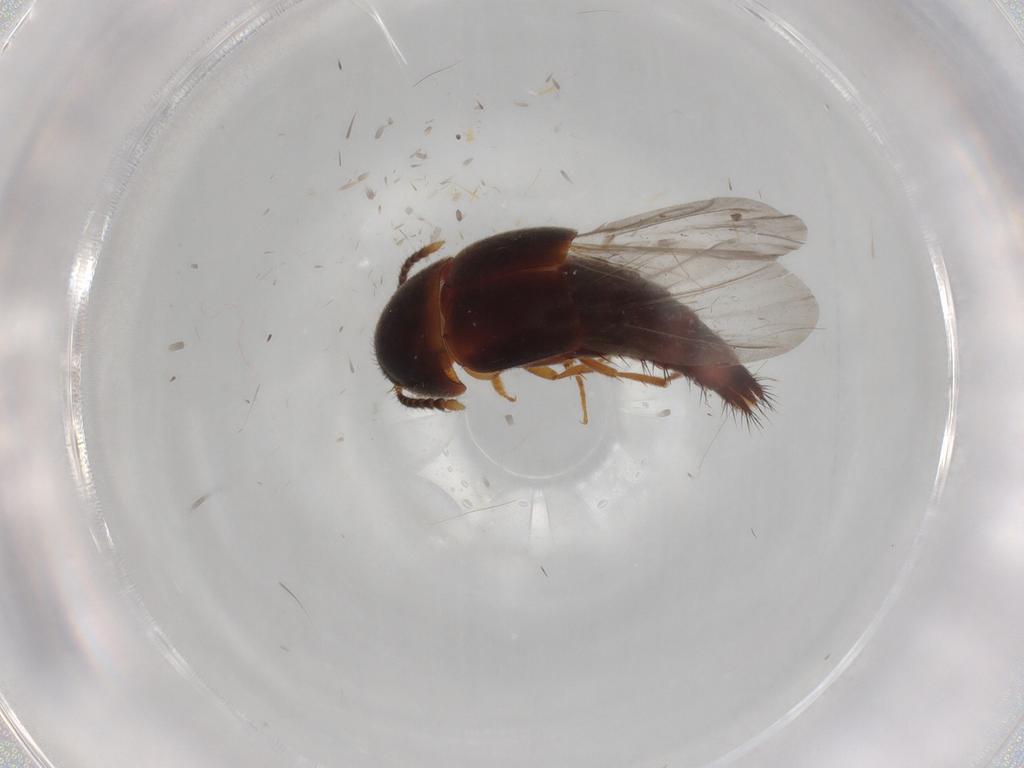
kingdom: Animalia
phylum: Arthropoda
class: Insecta
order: Coleoptera
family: Staphylinidae
